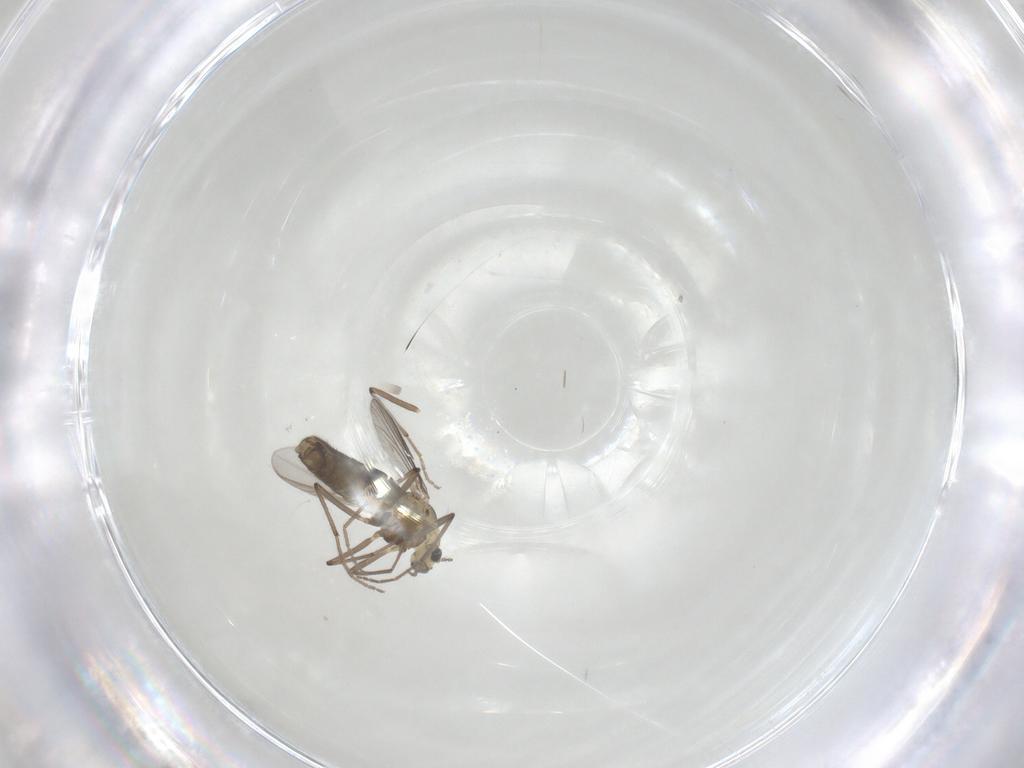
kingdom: Animalia
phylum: Arthropoda
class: Insecta
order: Diptera
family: Chironomidae
